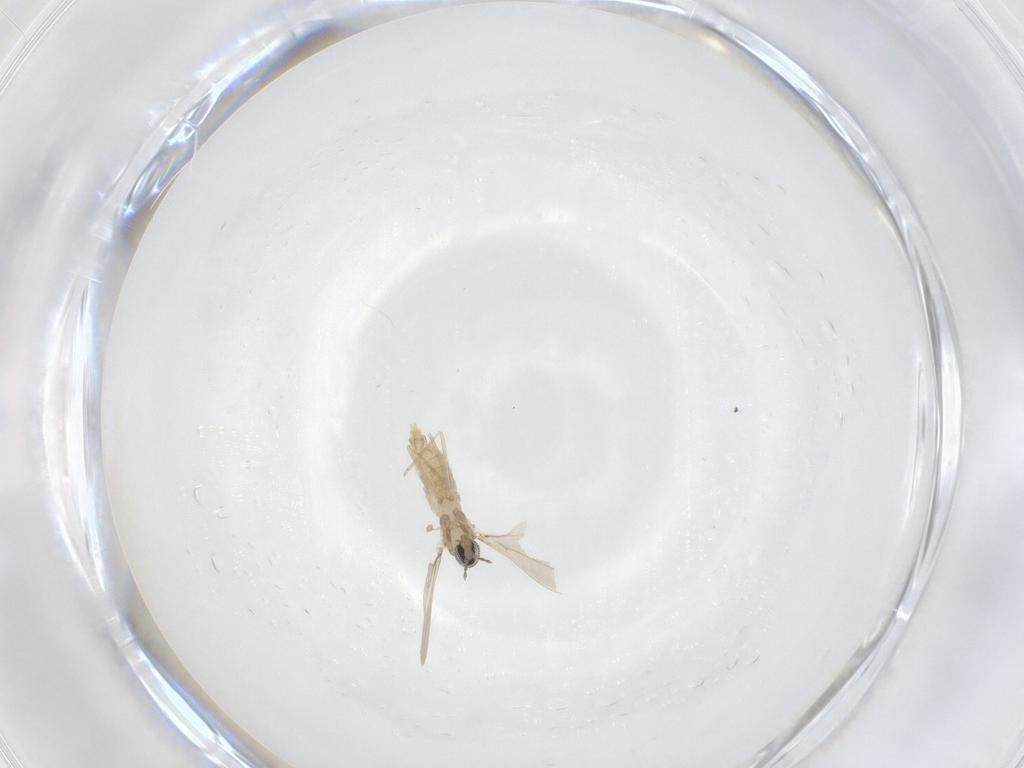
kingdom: Animalia
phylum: Arthropoda
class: Insecta
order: Diptera
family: Cecidomyiidae
